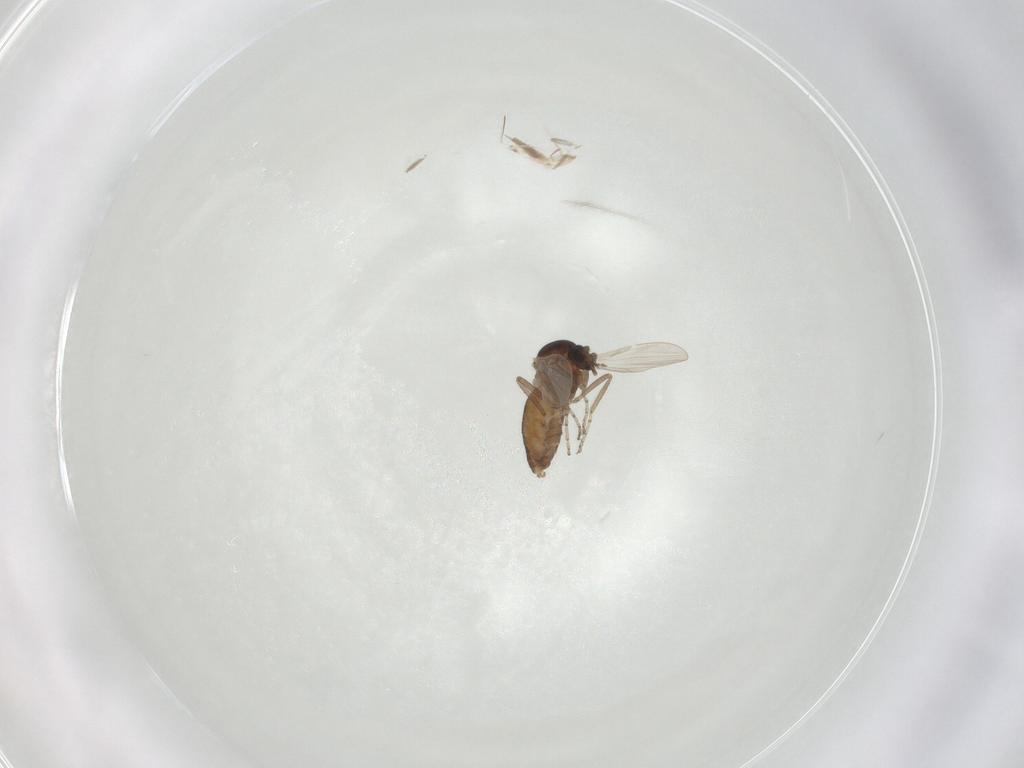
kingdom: Animalia
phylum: Arthropoda
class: Insecta
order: Diptera
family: Ceratopogonidae
